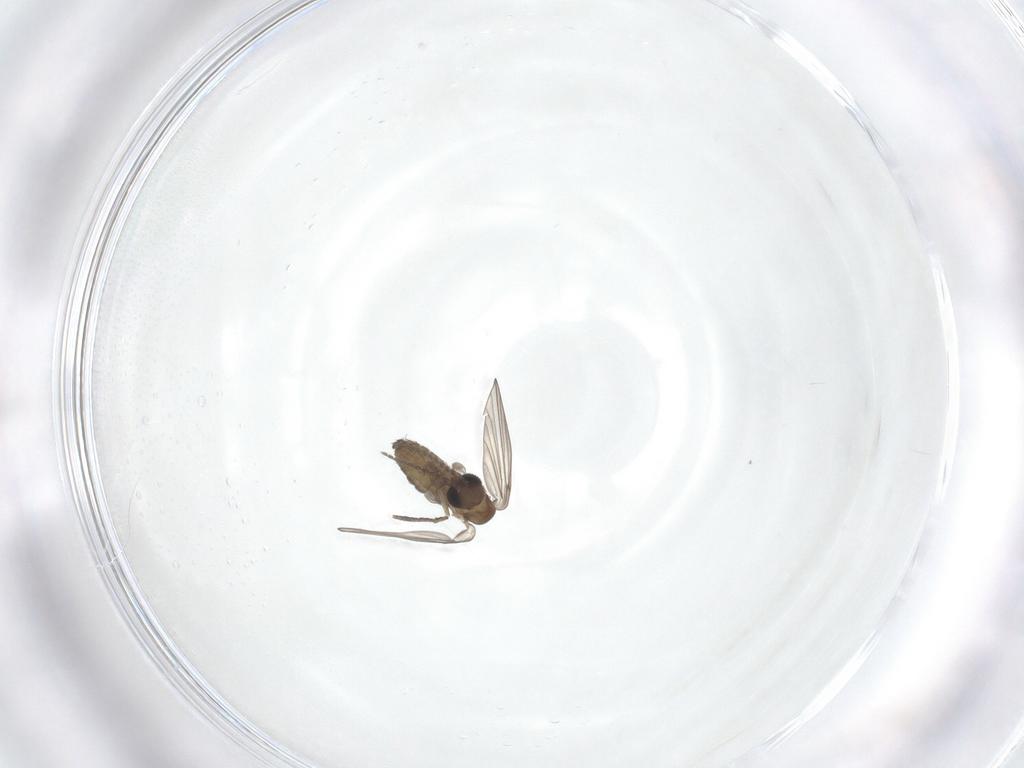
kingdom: Animalia
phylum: Arthropoda
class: Insecta
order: Diptera
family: Psychodidae
